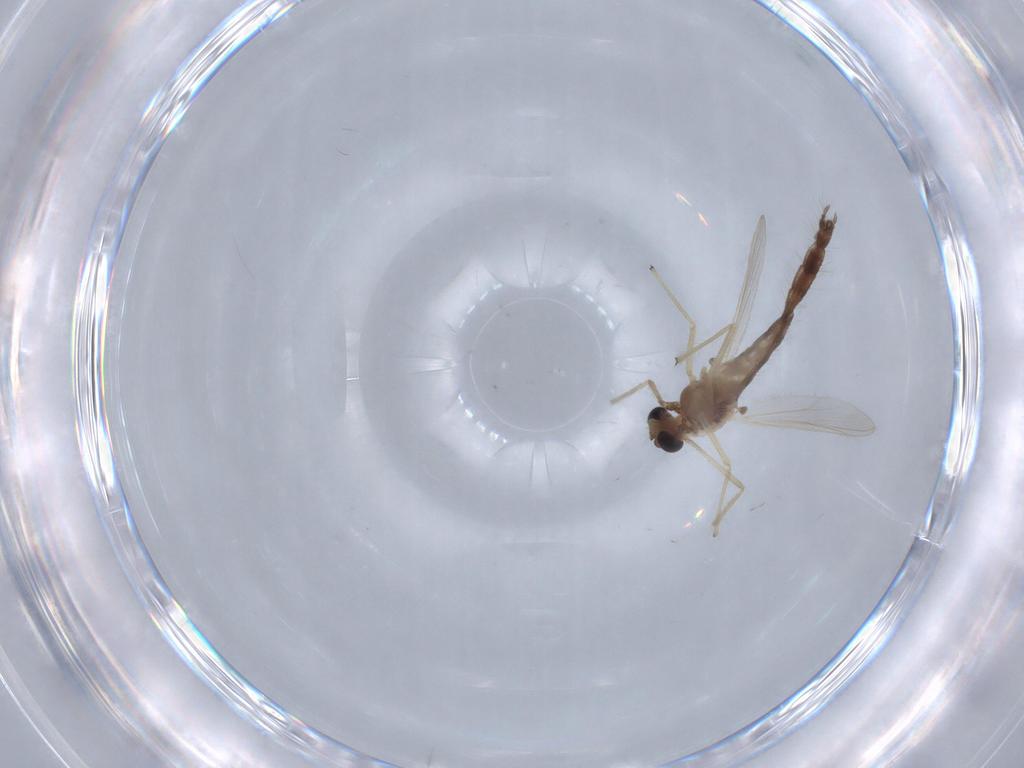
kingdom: Animalia
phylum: Arthropoda
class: Insecta
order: Diptera
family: Chironomidae
